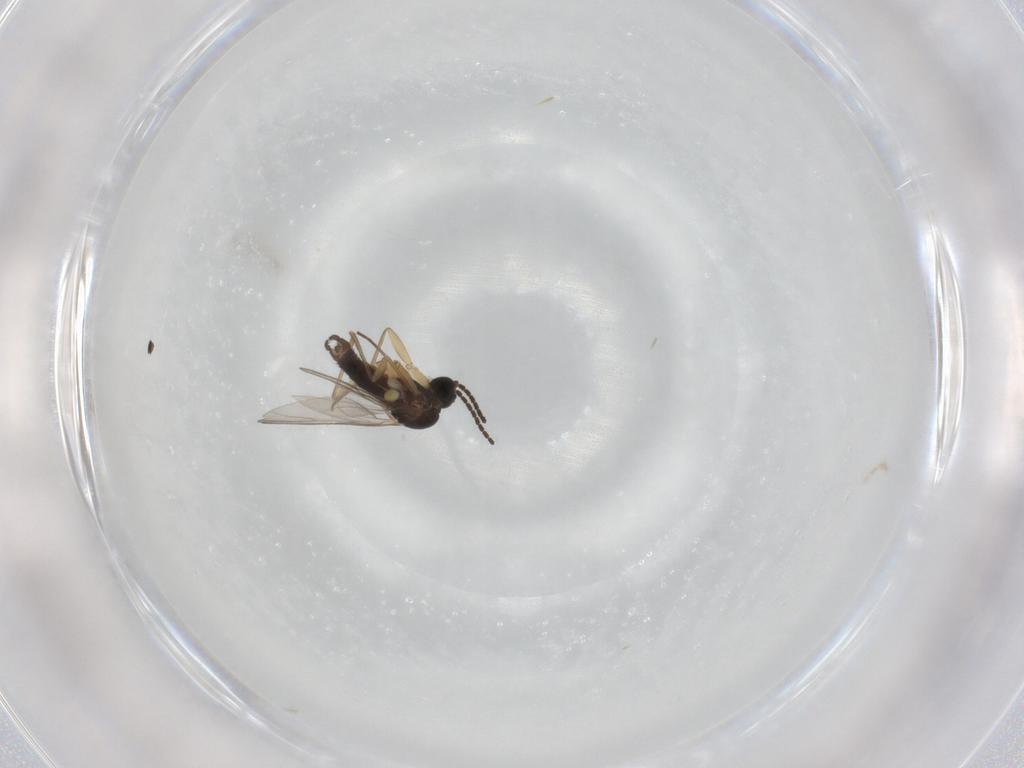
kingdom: Animalia
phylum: Arthropoda
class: Insecta
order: Diptera
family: Sciaridae
